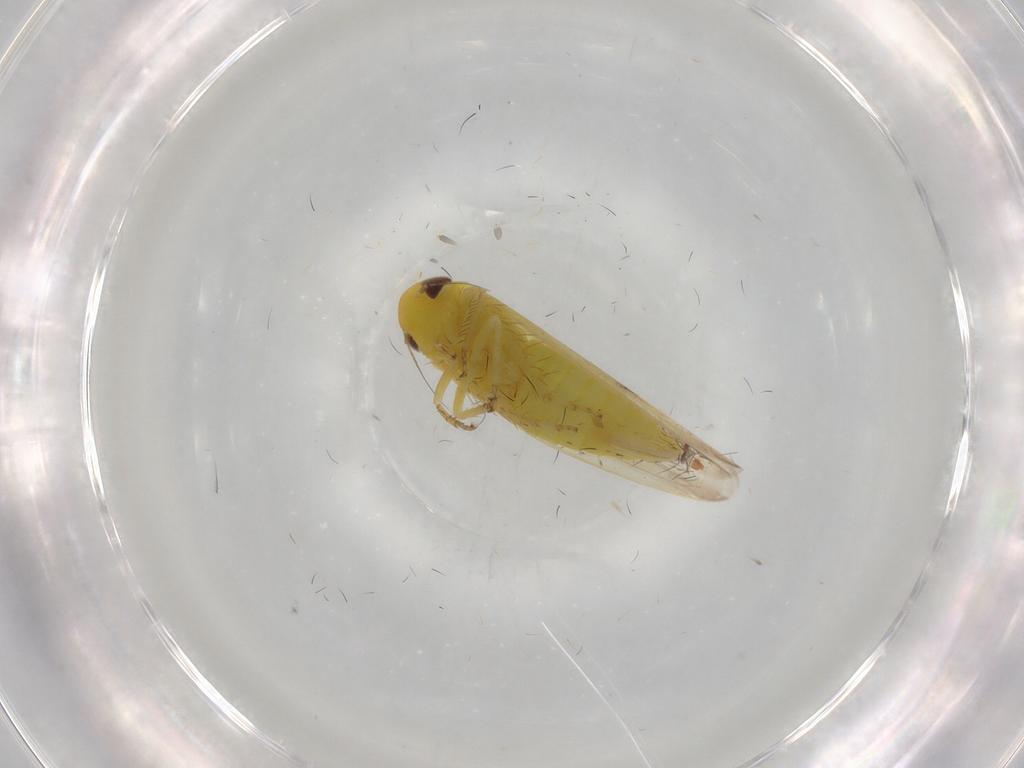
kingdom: Animalia
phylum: Arthropoda
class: Insecta
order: Hemiptera
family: Cicadellidae
